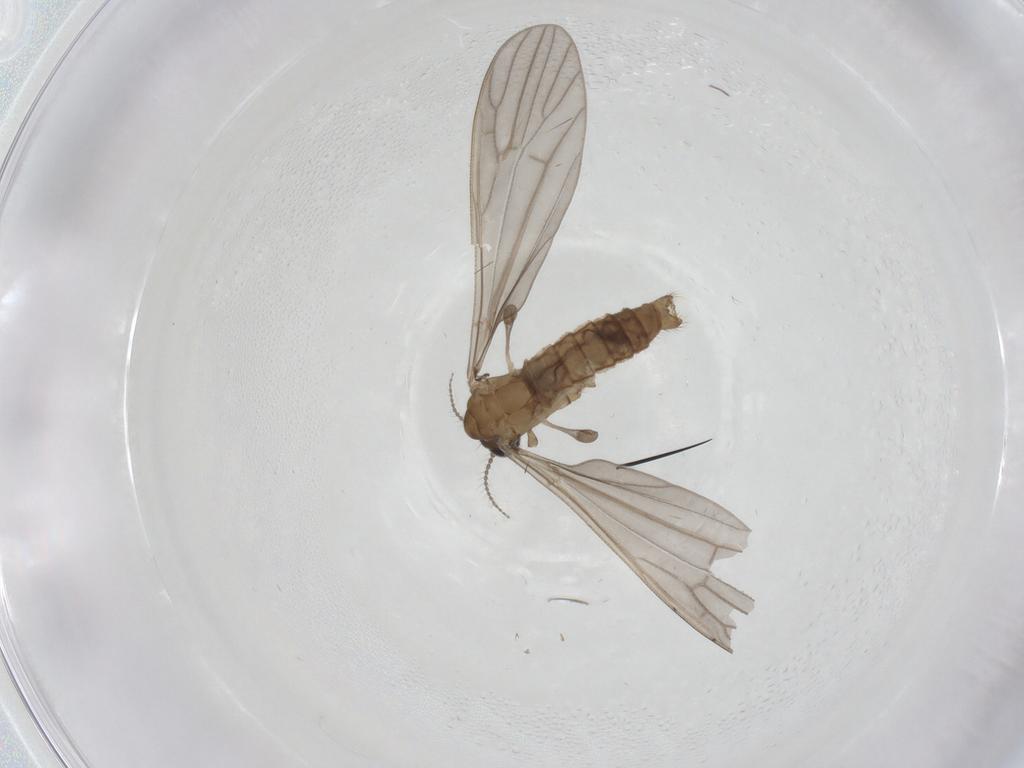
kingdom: Animalia
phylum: Arthropoda
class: Insecta
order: Diptera
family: Limoniidae
